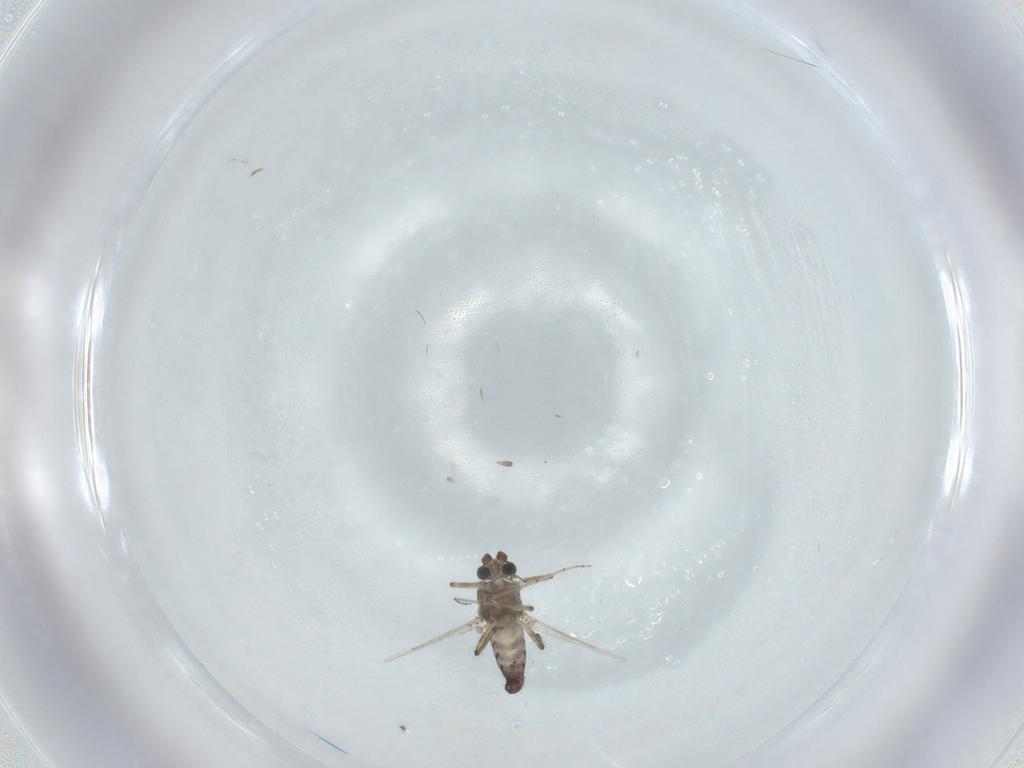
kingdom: Animalia
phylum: Arthropoda
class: Insecta
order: Diptera
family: Ceratopogonidae
